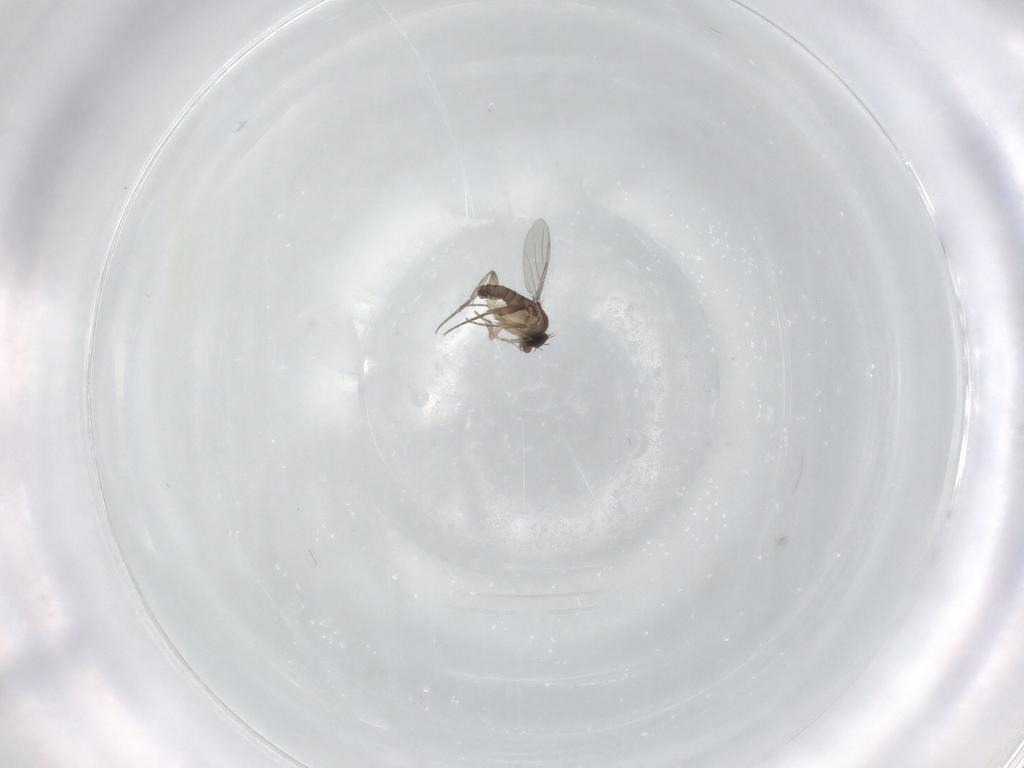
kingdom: Animalia
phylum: Arthropoda
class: Insecta
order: Diptera
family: Phoridae
